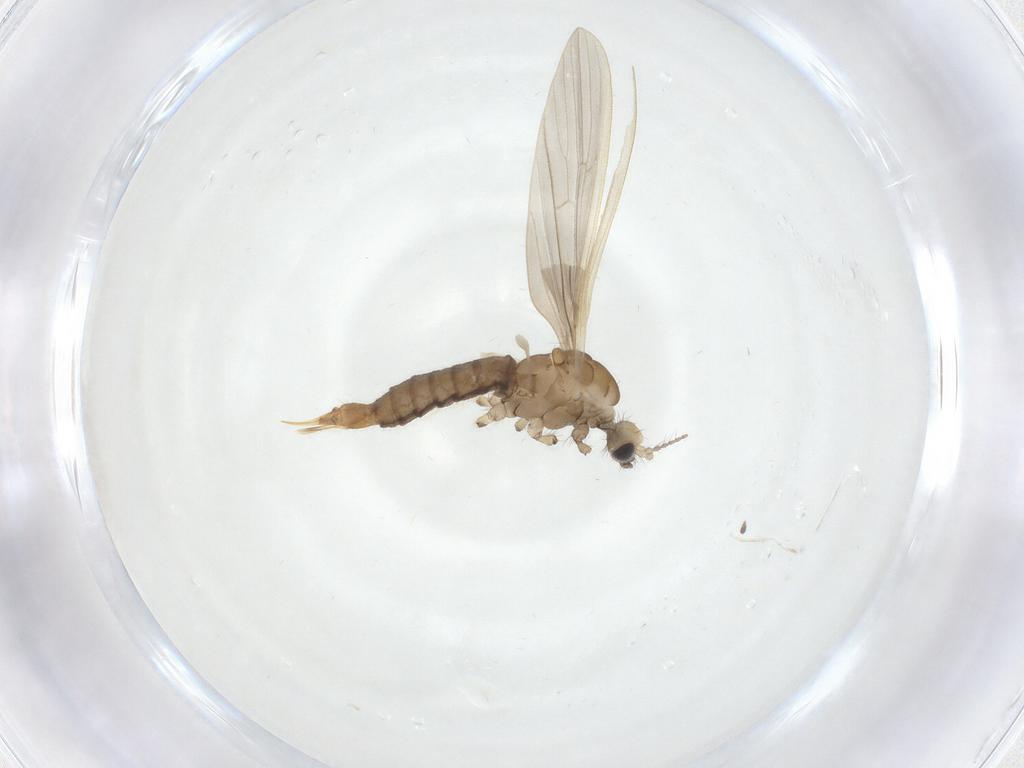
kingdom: Animalia
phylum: Arthropoda
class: Insecta
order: Diptera
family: Limoniidae
